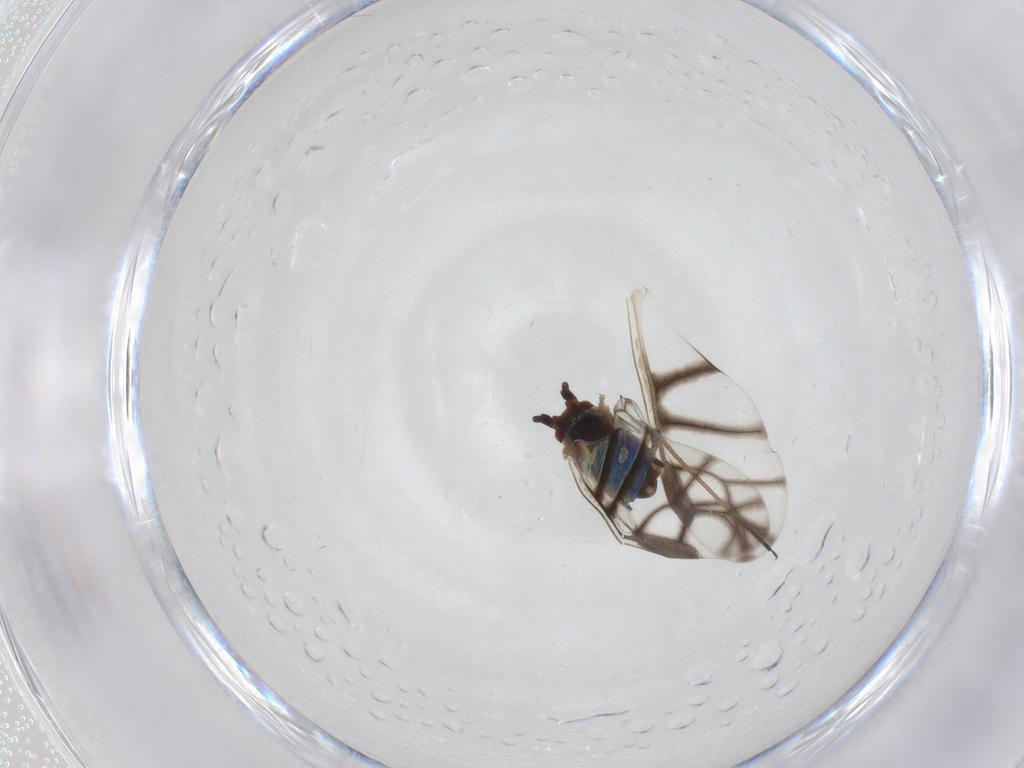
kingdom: Animalia
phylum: Arthropoda
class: Insecta
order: Hemiptera
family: Aphididae
